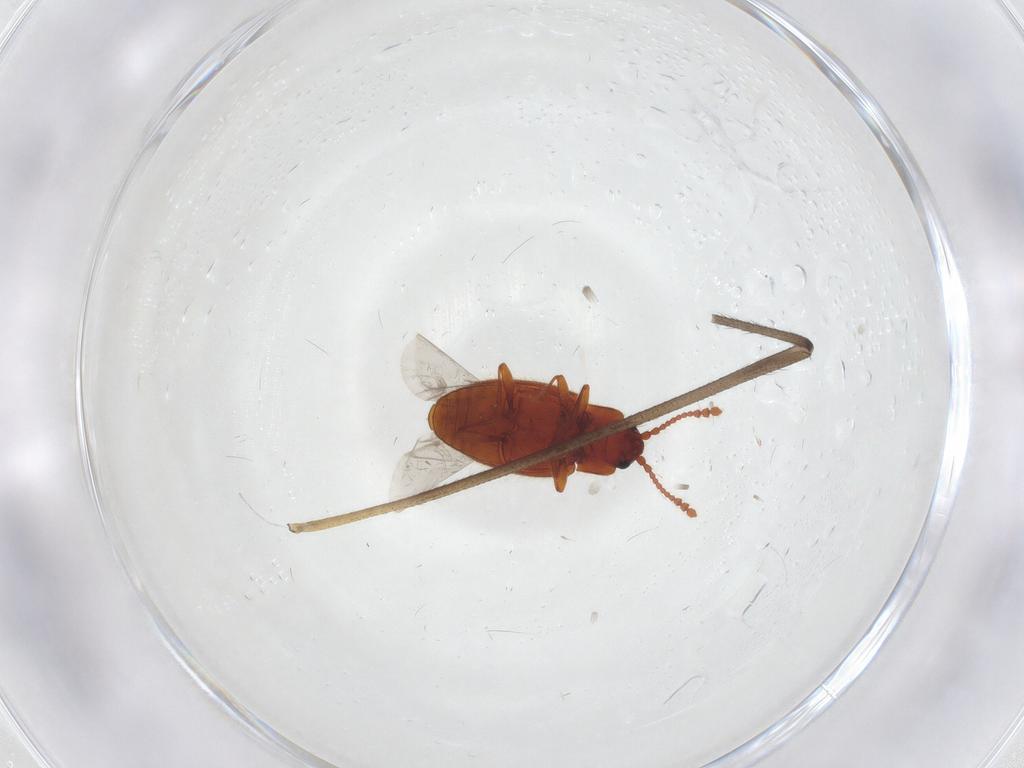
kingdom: Animalia
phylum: Arthropoda
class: Insecta
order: Coleoptera
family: Cryptophagidae
